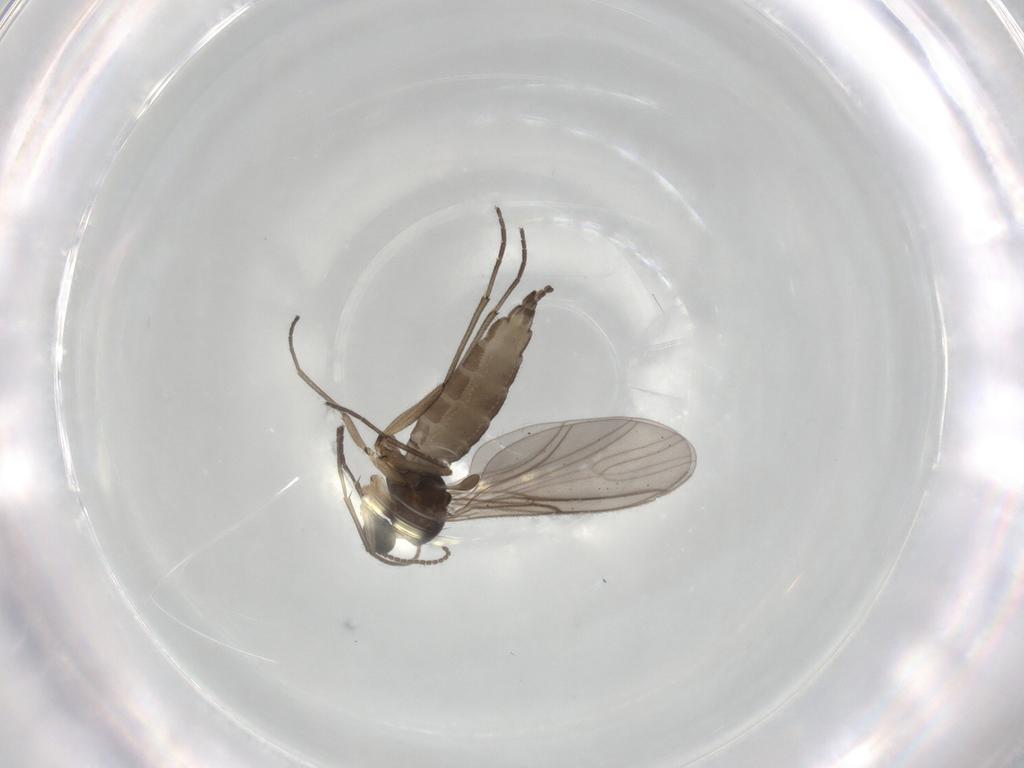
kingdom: Animalia
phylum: Arthropoda
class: Insecta
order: Diptera
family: Sciaridae
